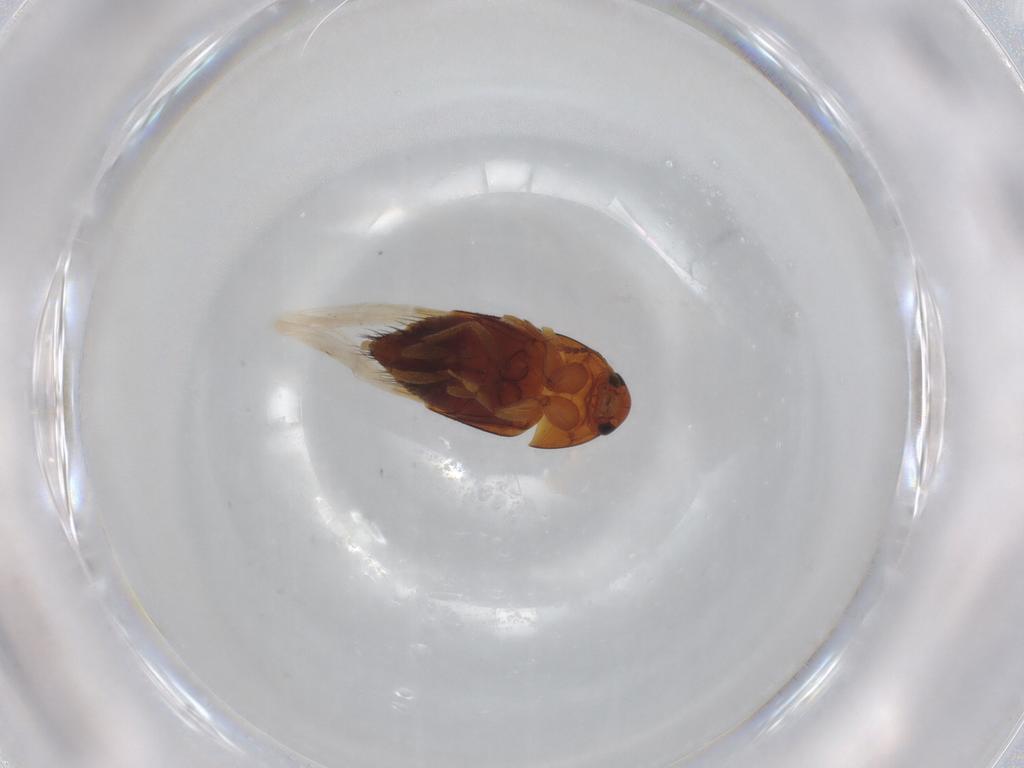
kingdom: Animalia
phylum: Arthropoda
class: Insecta
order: Coleoptera
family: Staphylinidae
